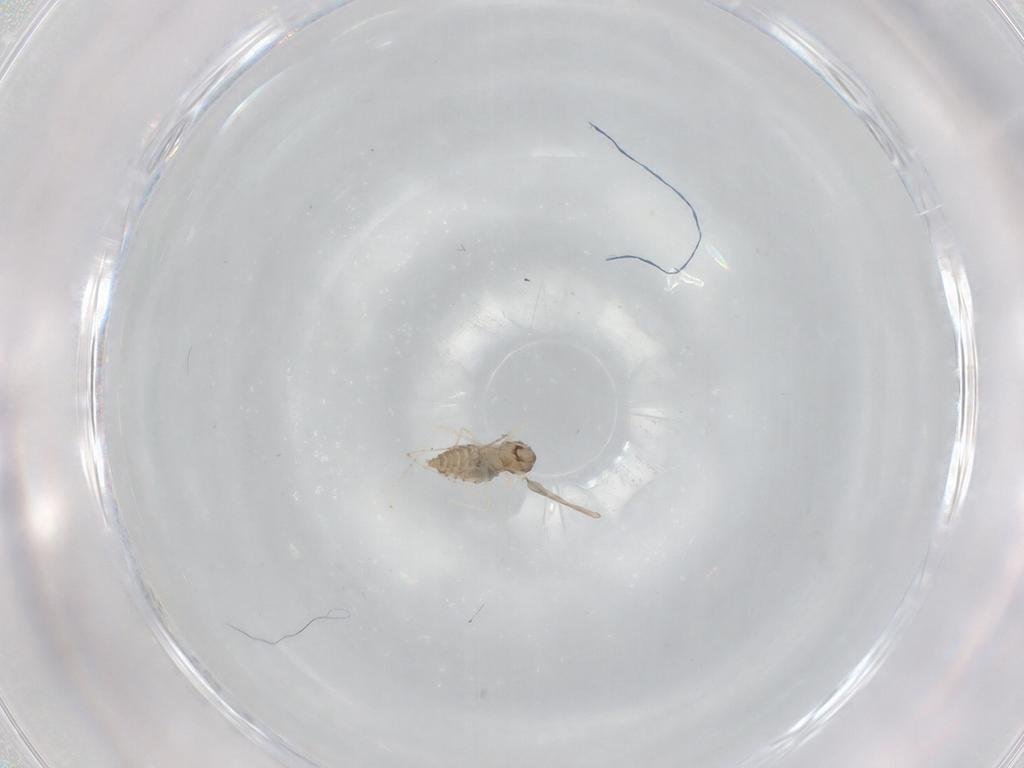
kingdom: Animalia
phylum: Arthropoda
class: Insecta
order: Diptera
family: Cecidomyiidae
